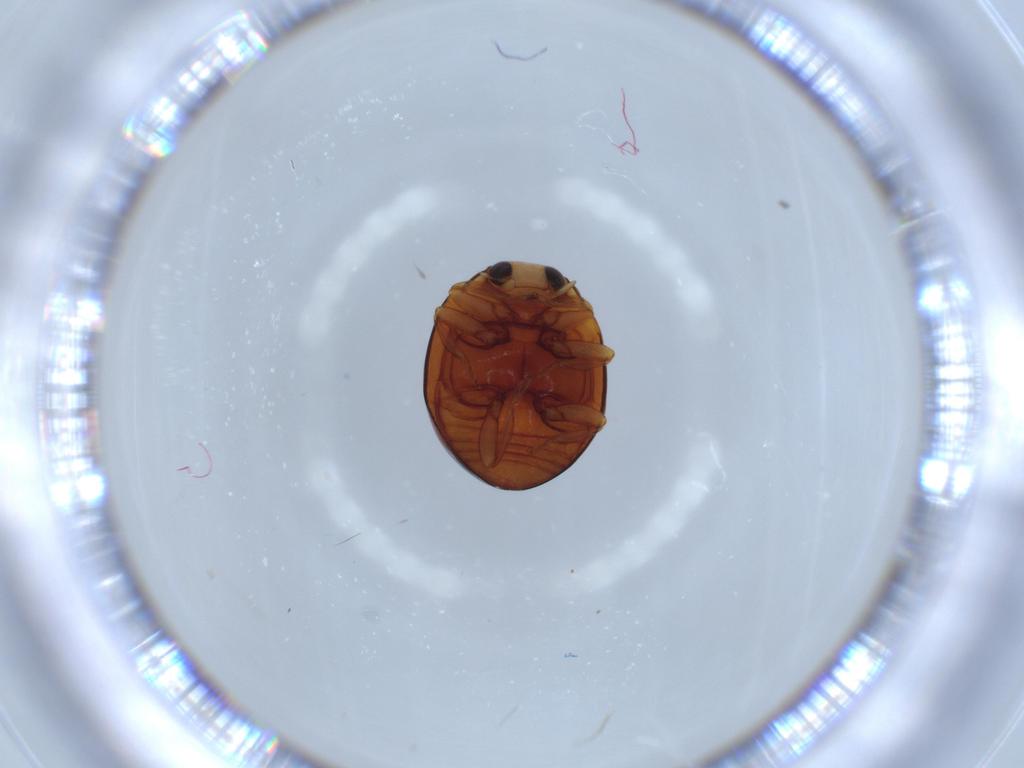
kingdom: Animalia
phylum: Arthropoda
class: Insecta
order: Coleoptera
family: Coccinellidae
